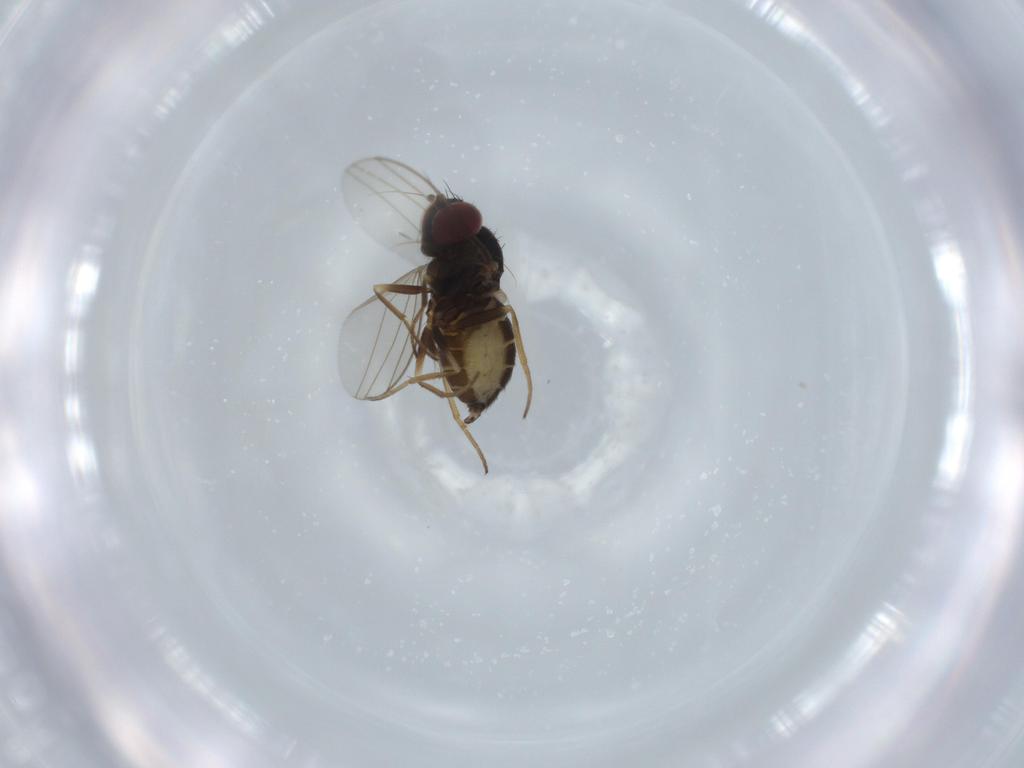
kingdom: Animalia
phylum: Arthropoda
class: Insecta
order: Diptera
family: Dolichopodidae
